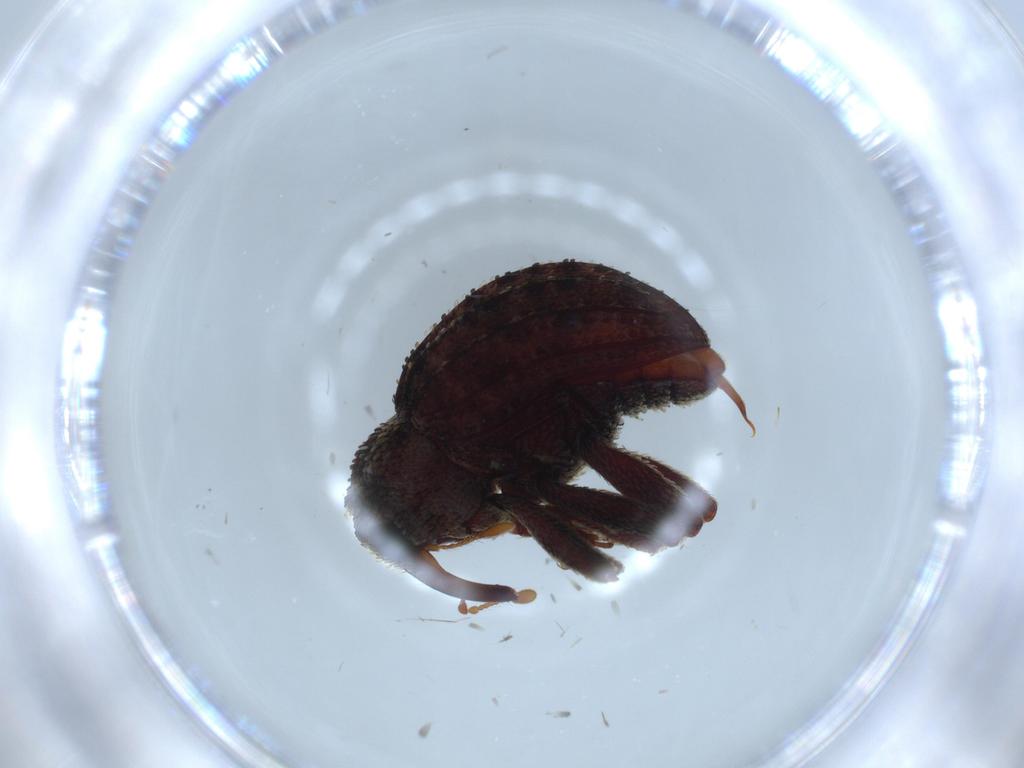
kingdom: Animalia
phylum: Arthropoda
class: Insecta
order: Coleoptera
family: Curculionidae
